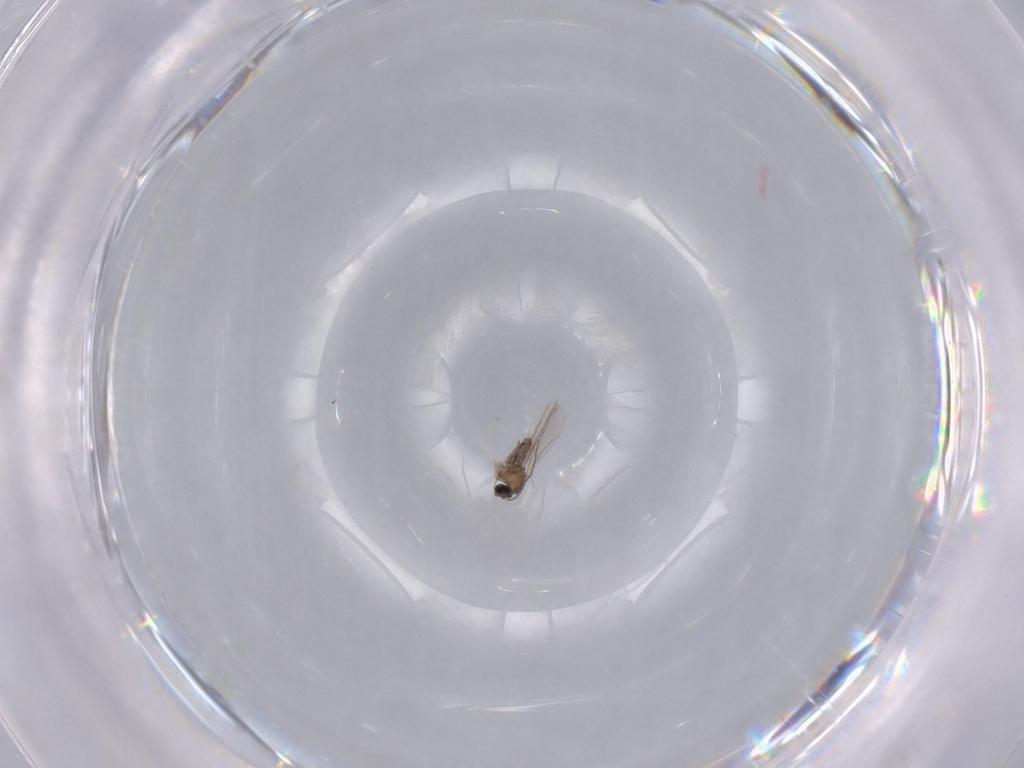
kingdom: Animalia
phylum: Arthropoda
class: Insecta
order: Diptera
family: Cecidomyiidae
